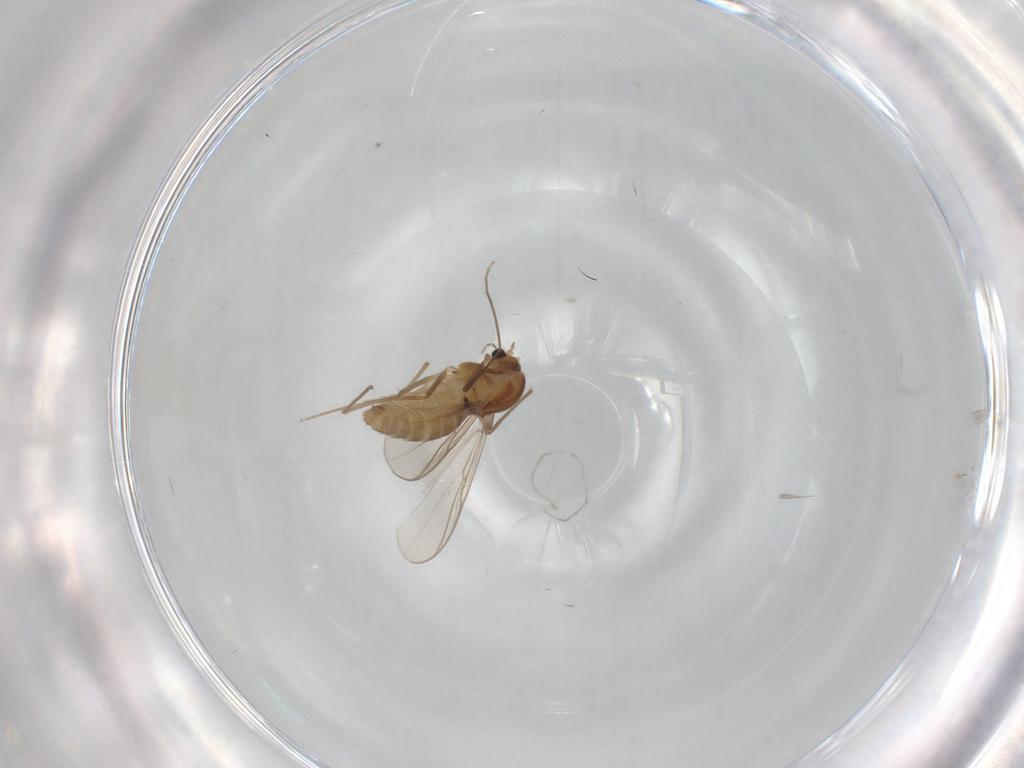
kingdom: Animalia
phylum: Arthropoda
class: Insecta
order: Diptera
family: Chironomidae
